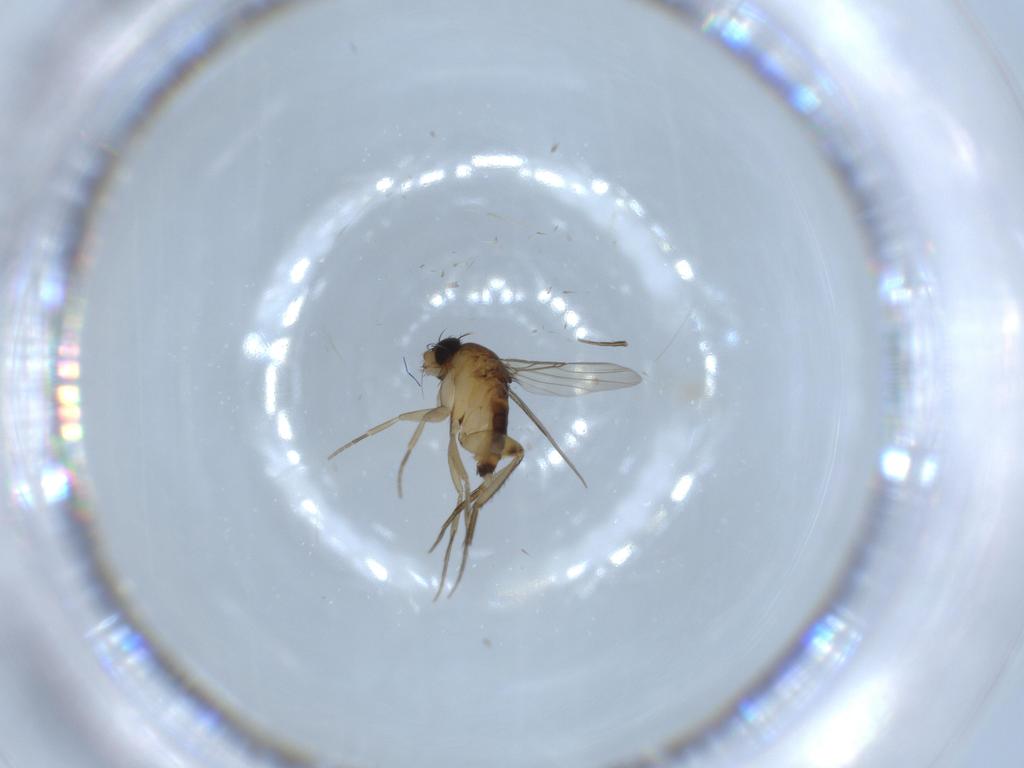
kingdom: Animalia
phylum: Arthropoda
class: Insecta
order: Diptera
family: Phoridae
